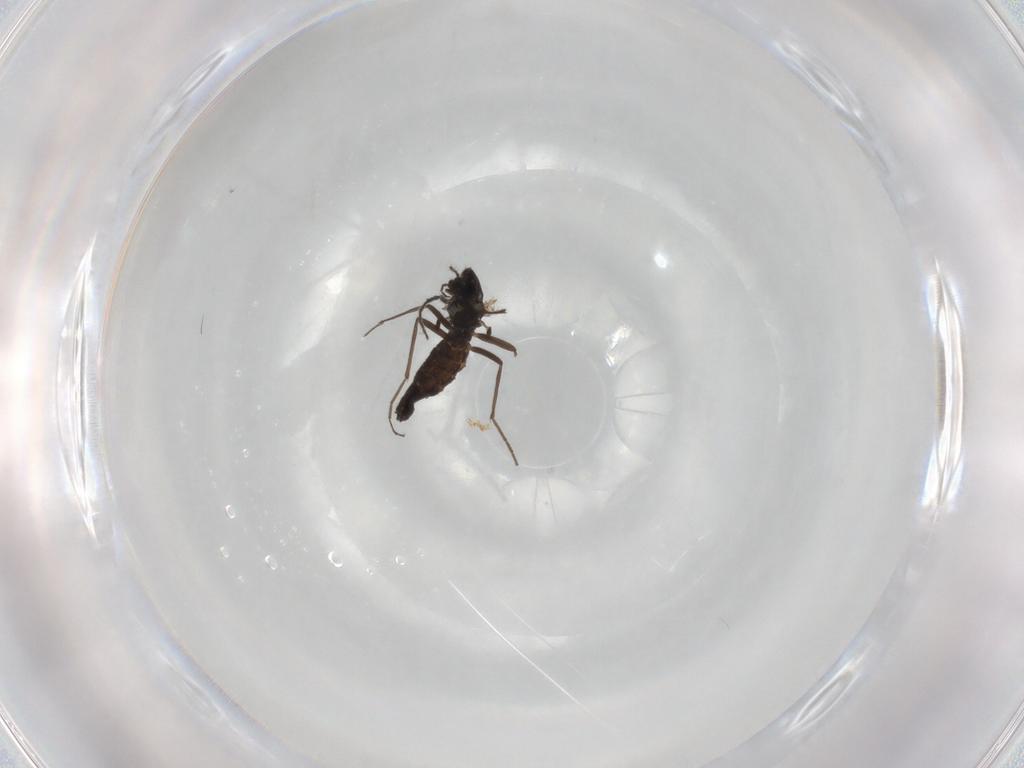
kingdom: Animalia
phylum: Arthropoda
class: Insecta
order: Diptera
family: Chironomidae
